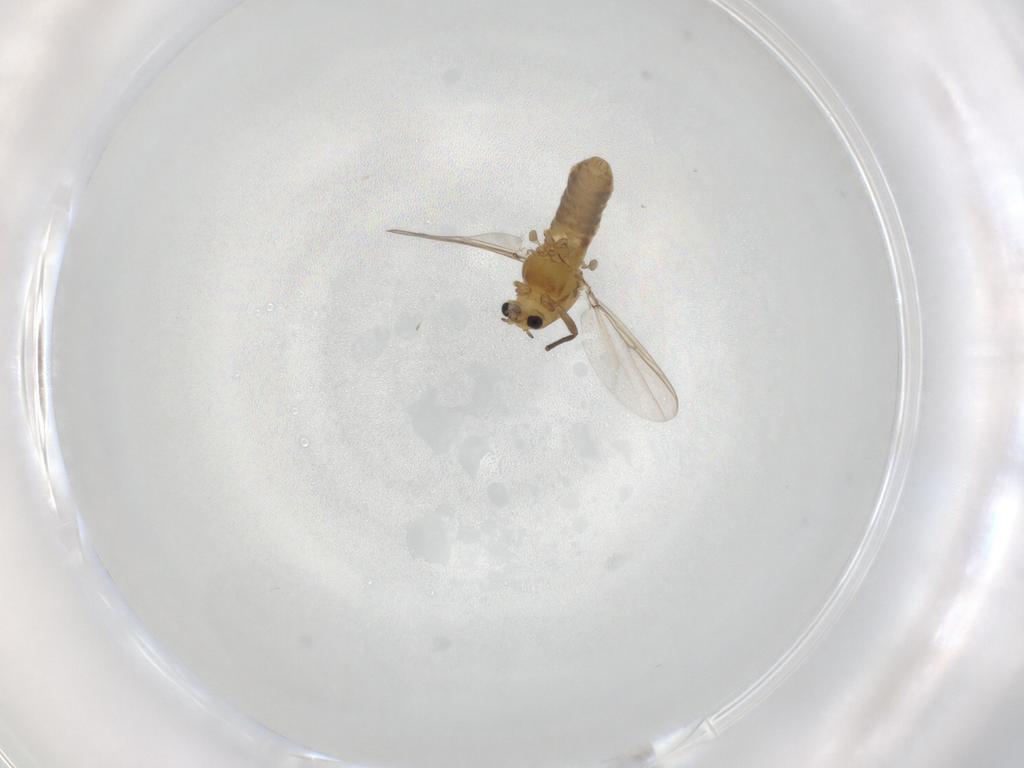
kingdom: Animalia
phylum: Arthropoda
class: Insecta
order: Diptera
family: Chironomidae
